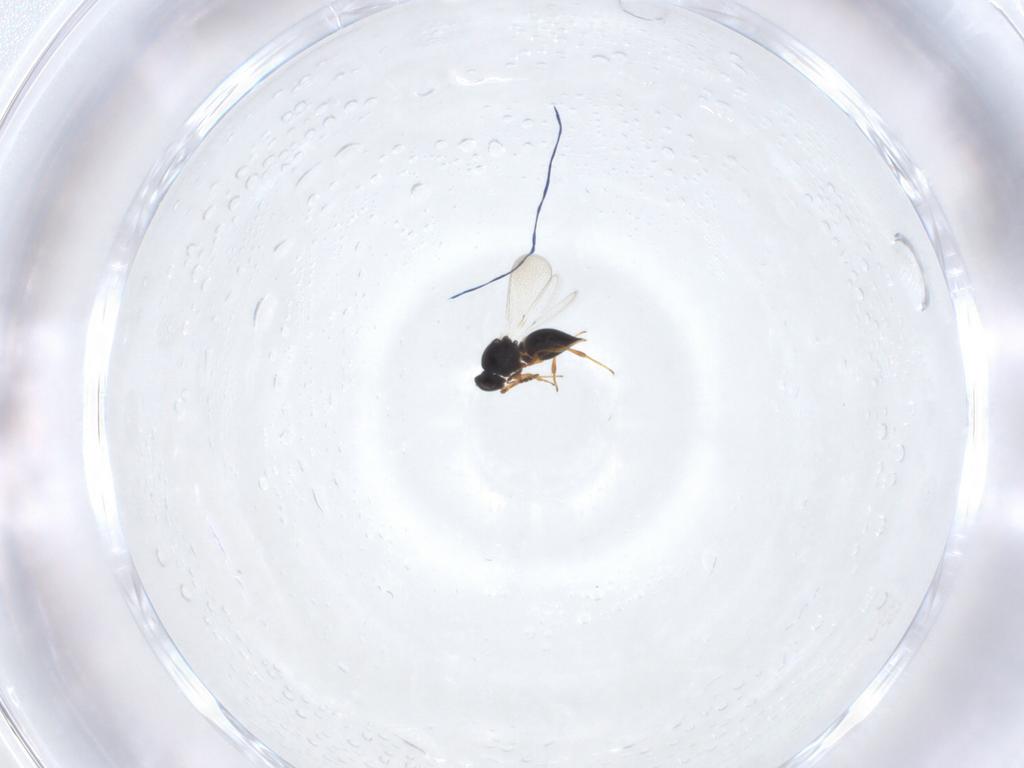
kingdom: Animalia
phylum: Arthropoda
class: Insecta
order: Hymenoptera
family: Platygastridae
